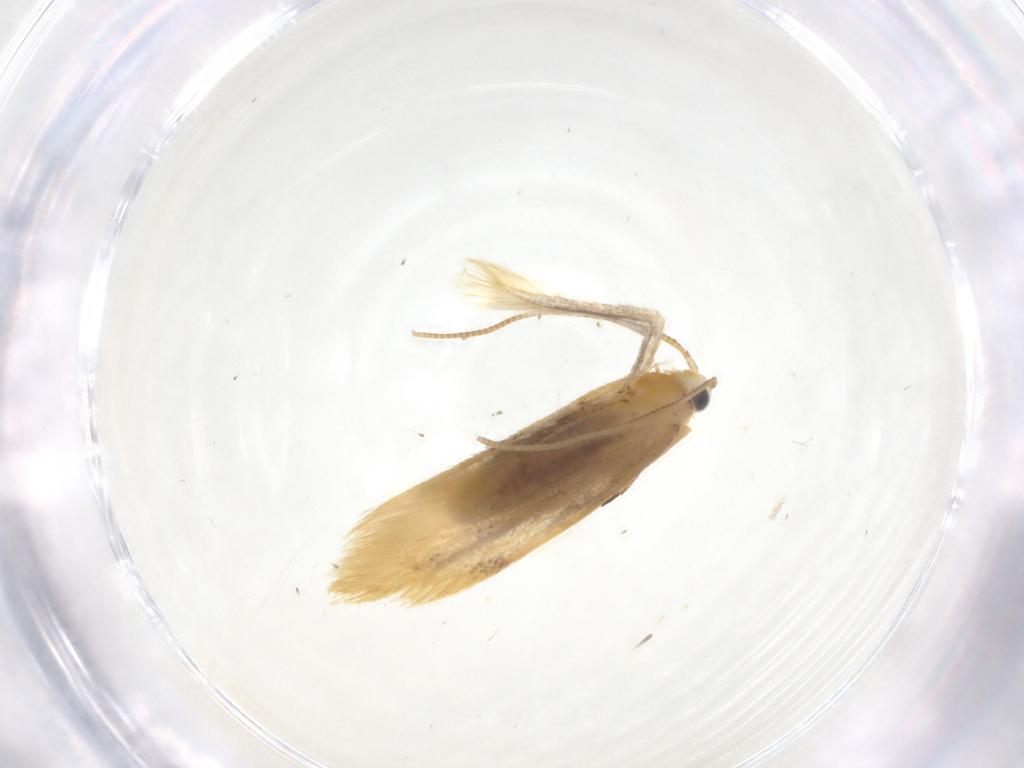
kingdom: Animalia
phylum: Arthropoda
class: Insecta
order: Lepidoptera
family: Nepticulidae
